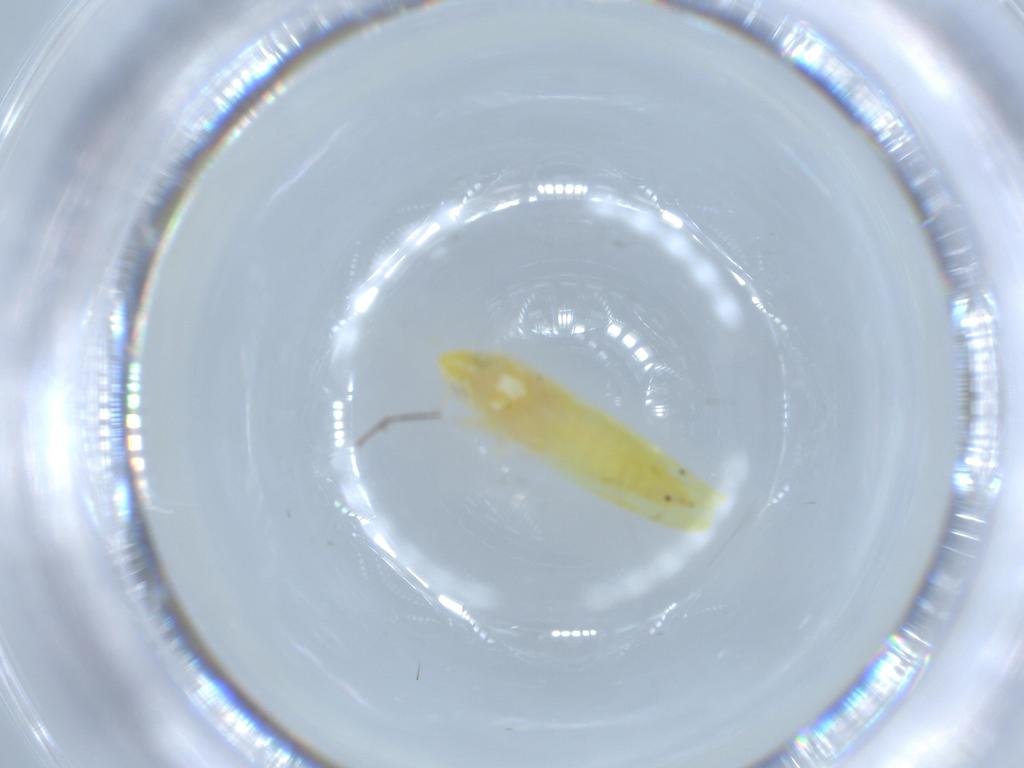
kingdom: Animalia
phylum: Arthropoda
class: Insecta
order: Hemiptera
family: Cicadellidae
